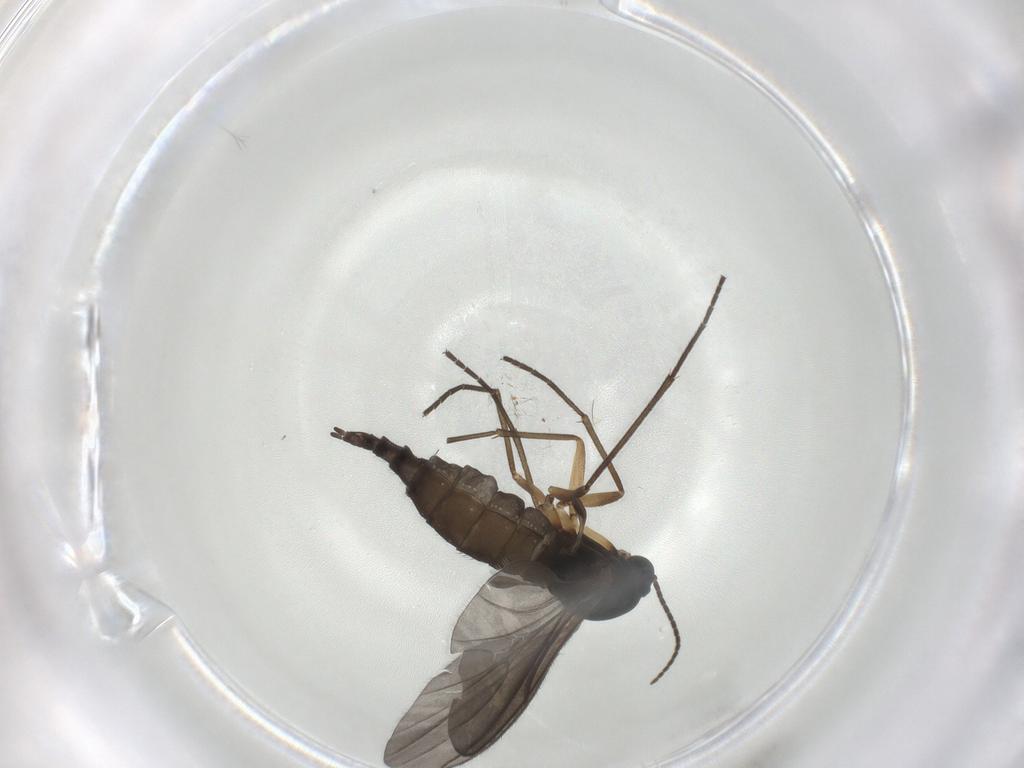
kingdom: Animalia
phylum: Arthropoda
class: Insecta
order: Diptera
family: Sciaridae
